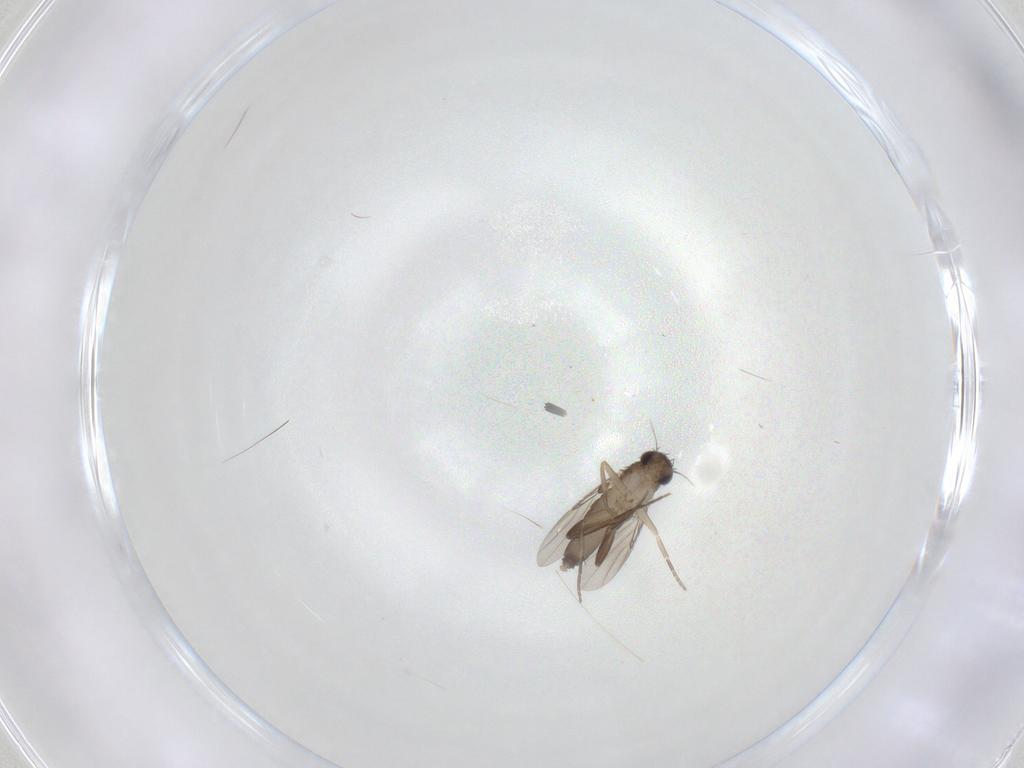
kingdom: Animalia
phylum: Arthropoda
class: Insecta
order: Diptera
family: Phoridae
